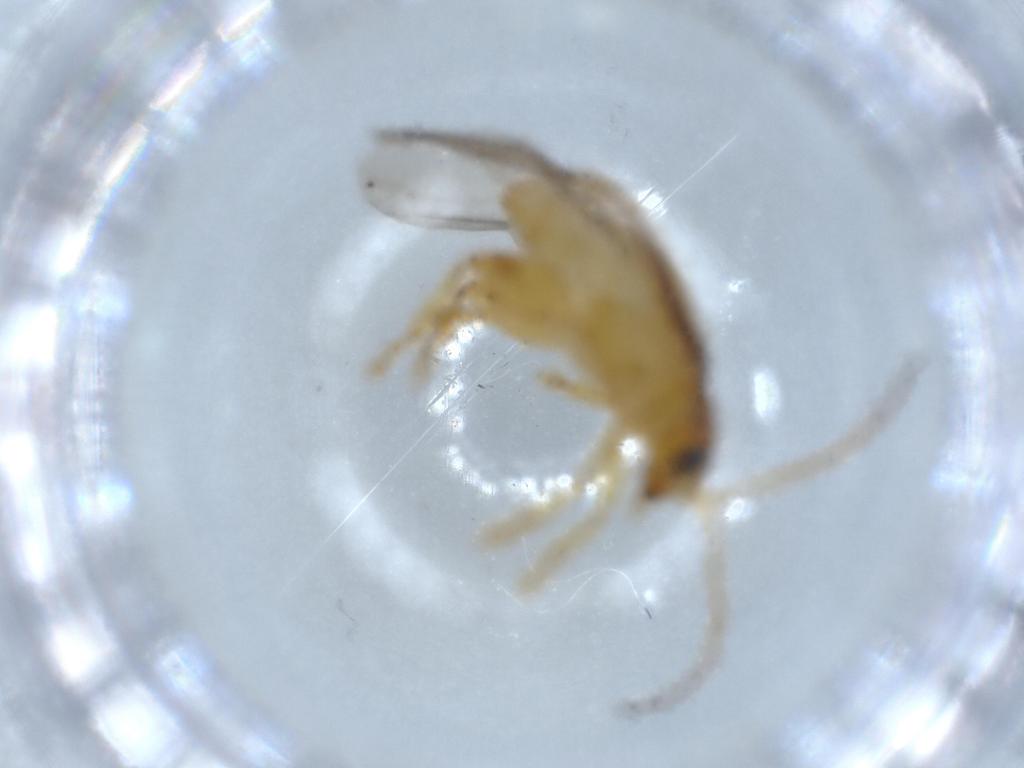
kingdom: Animalia
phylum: Arthropoda
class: Insecta
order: Coleoptera
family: Chrysomelidae
